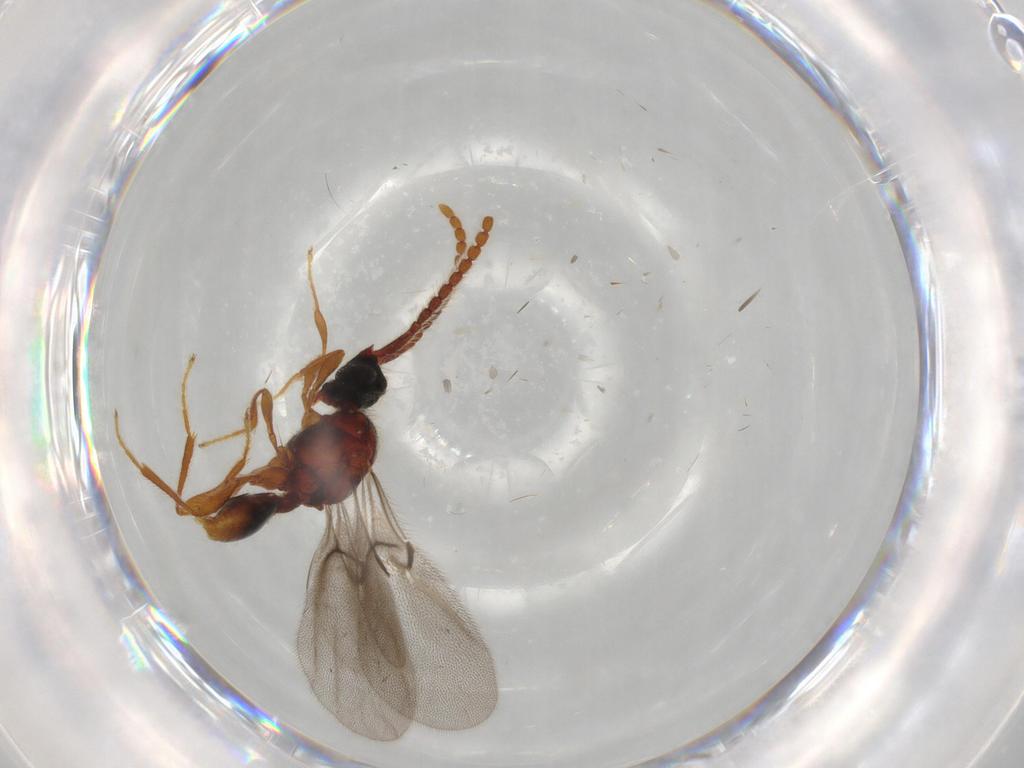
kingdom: Animalia
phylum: Arthropoda
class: Insecta
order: Hymenoptera
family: Diapriidae
